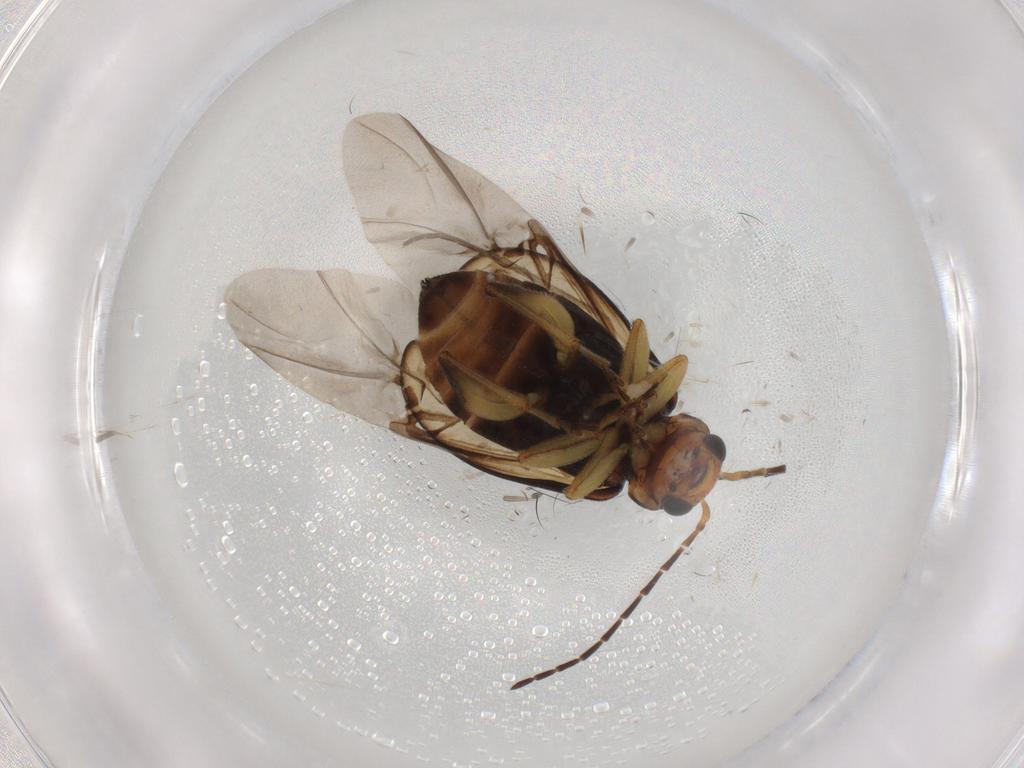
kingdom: Animalia
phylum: Arthropoda
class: Insecta
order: Coleoptera
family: Chrysomelidae
